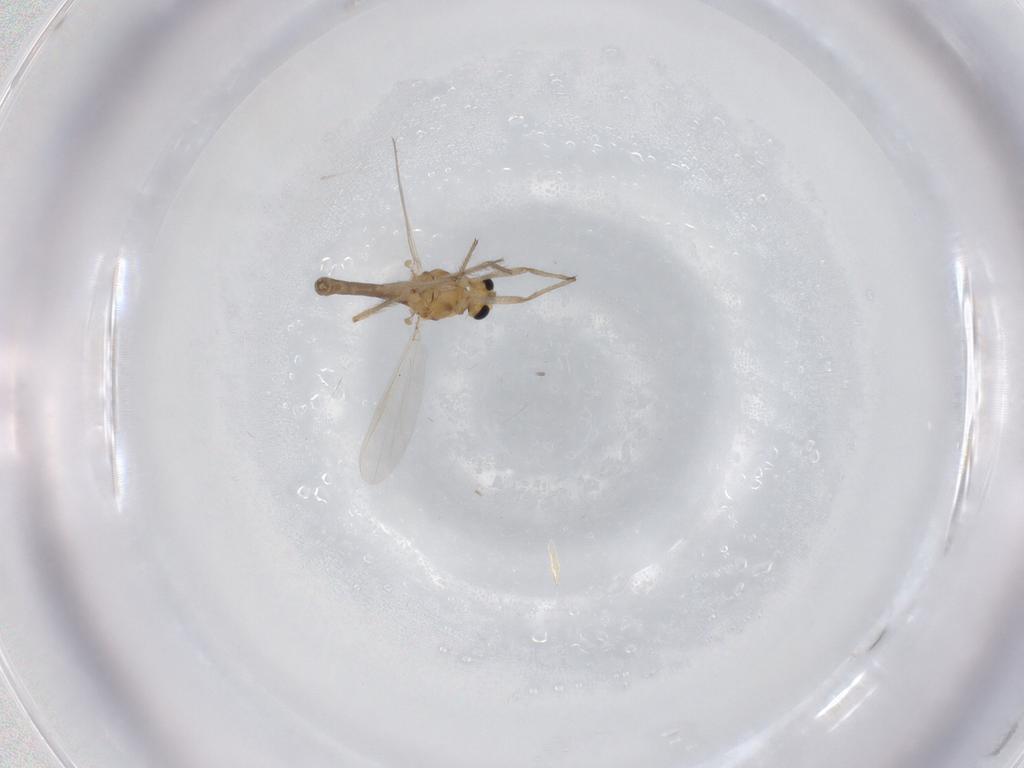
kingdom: Animalia
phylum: Arthropoda
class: Insecta
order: Diptera
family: Chironomidae
